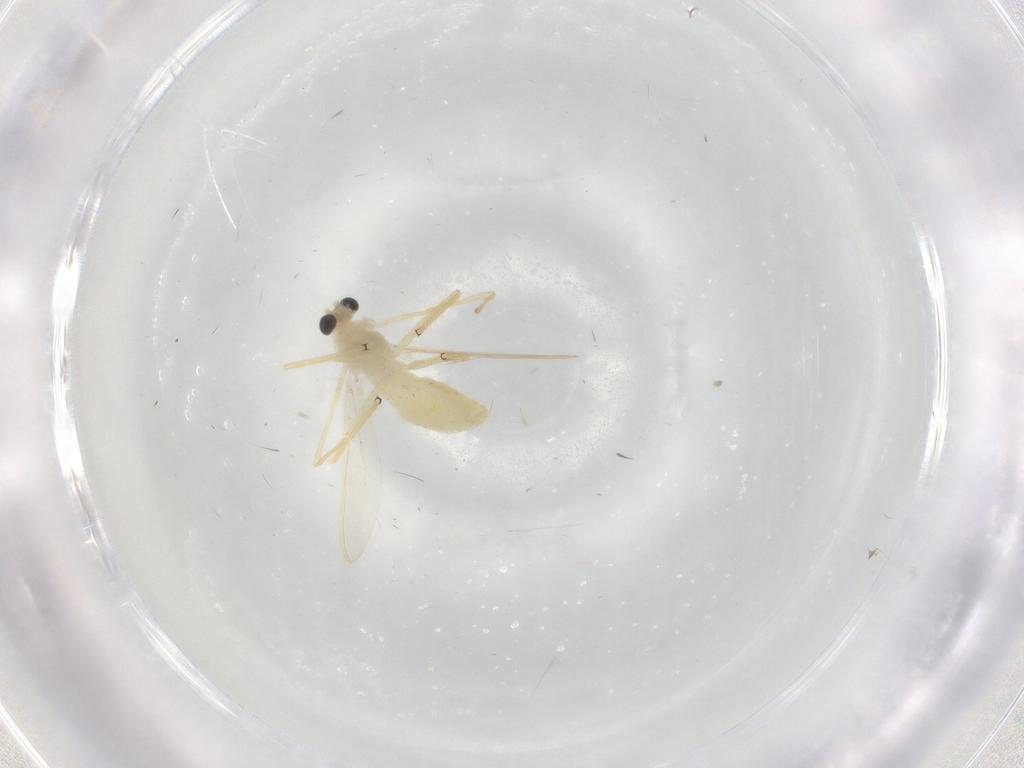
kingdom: Animalia
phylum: Arthropoda
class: Insecta
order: Diptera
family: Chironomidae
